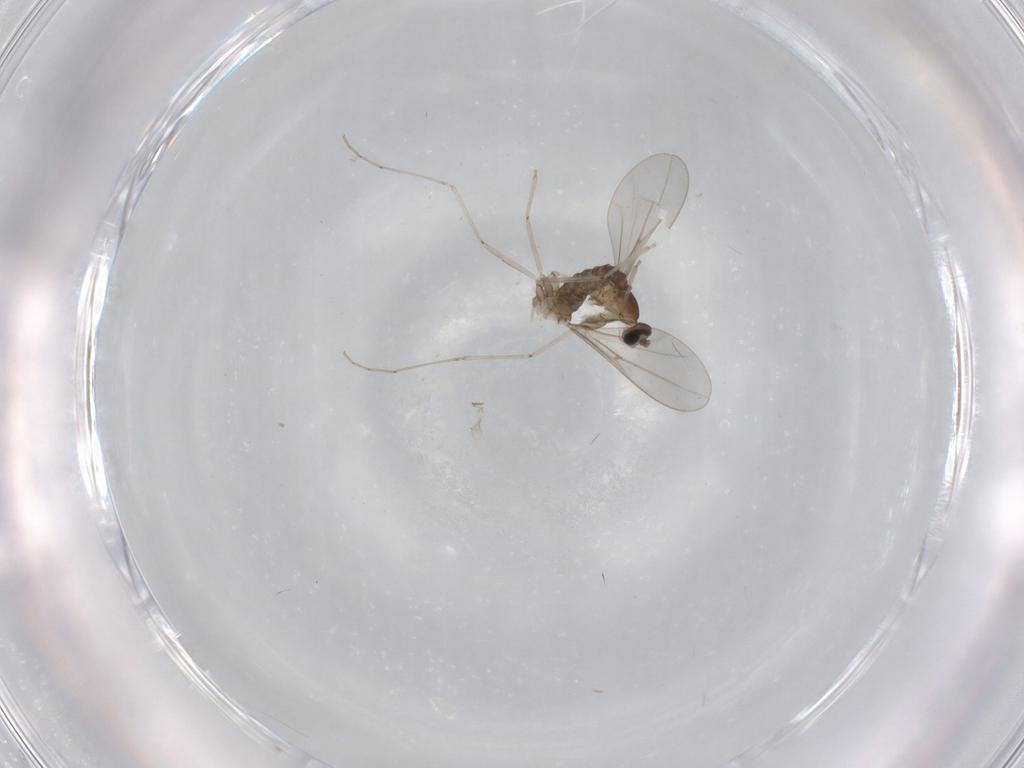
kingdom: Animalia
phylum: Arthropoda
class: Insecta
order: Diptera
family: Cecidomyiidae
